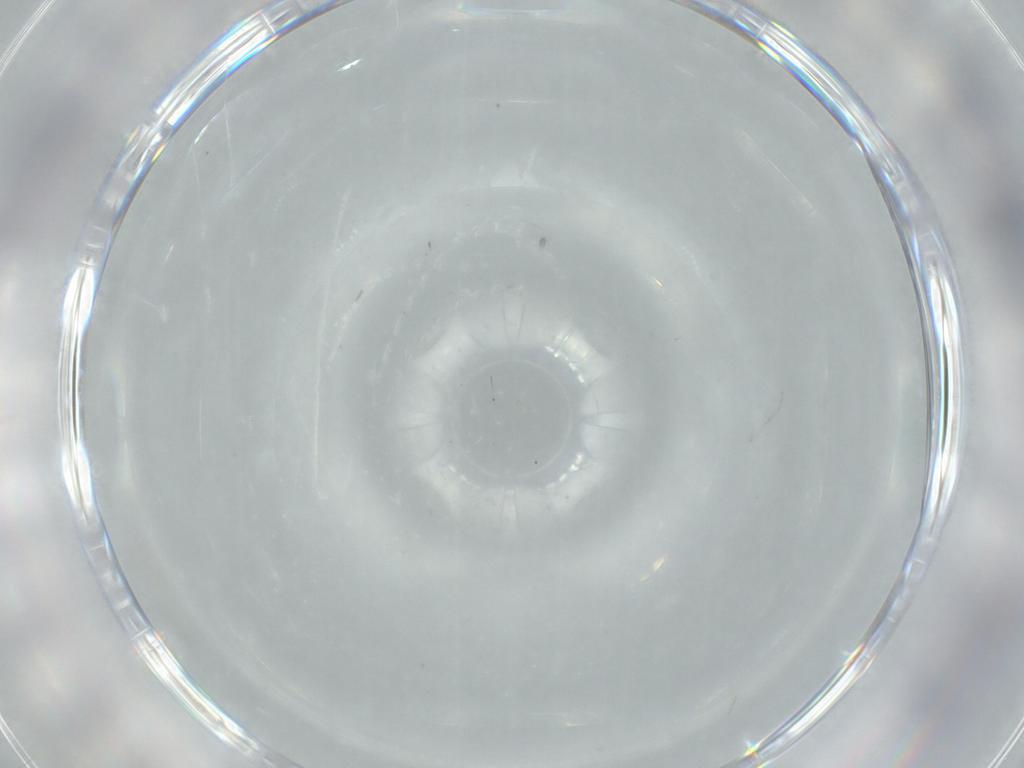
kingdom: Animalia
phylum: Arthropoda
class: Insecta
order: Diptera
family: Cecidomyiidae
